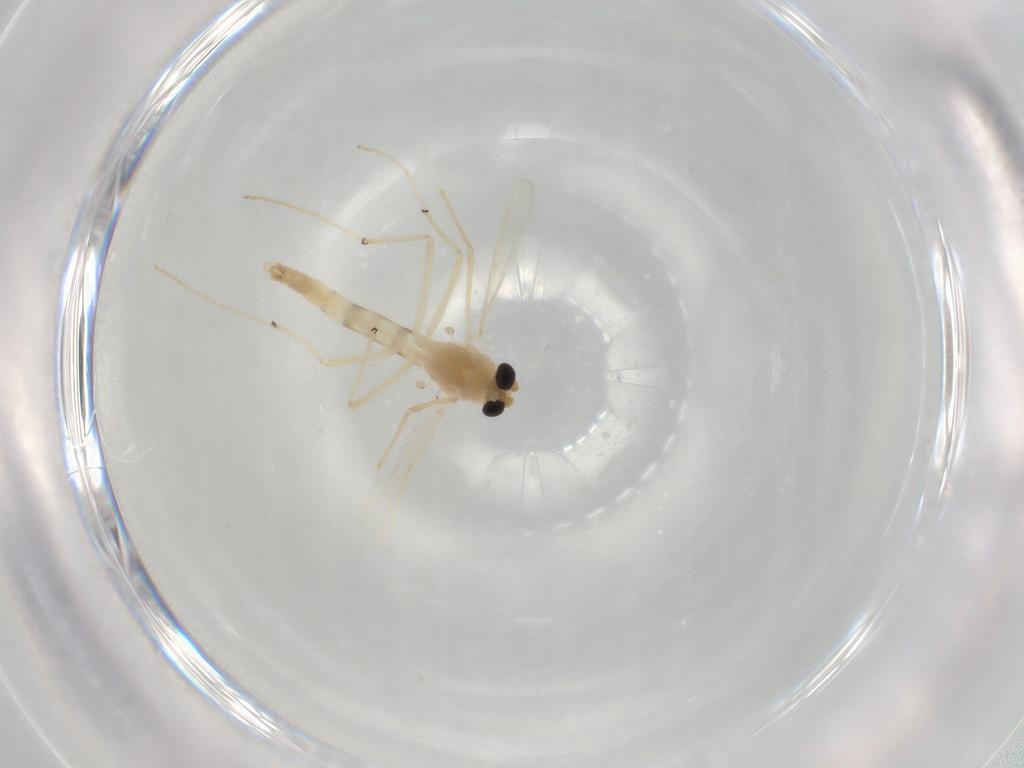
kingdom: Animalia
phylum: Arthropoda
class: Insecta
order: Diptera
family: Chironomidae
